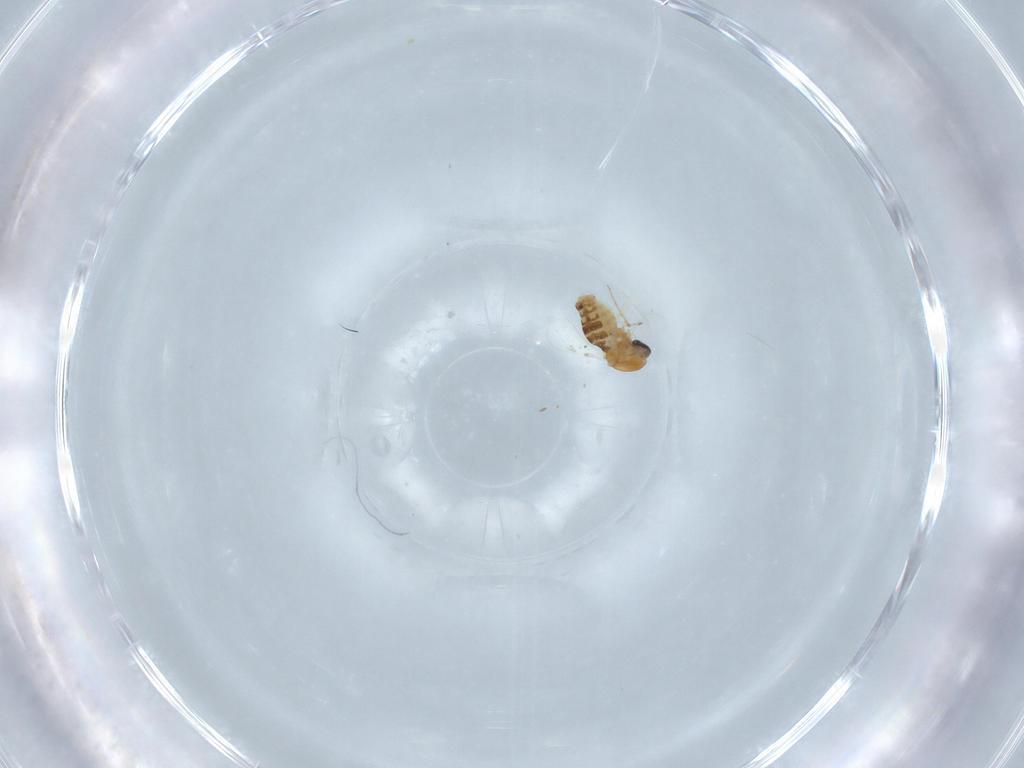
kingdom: Animalia
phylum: Arthropoda
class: Insecta
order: Diptera
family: Ceratopogonidae
